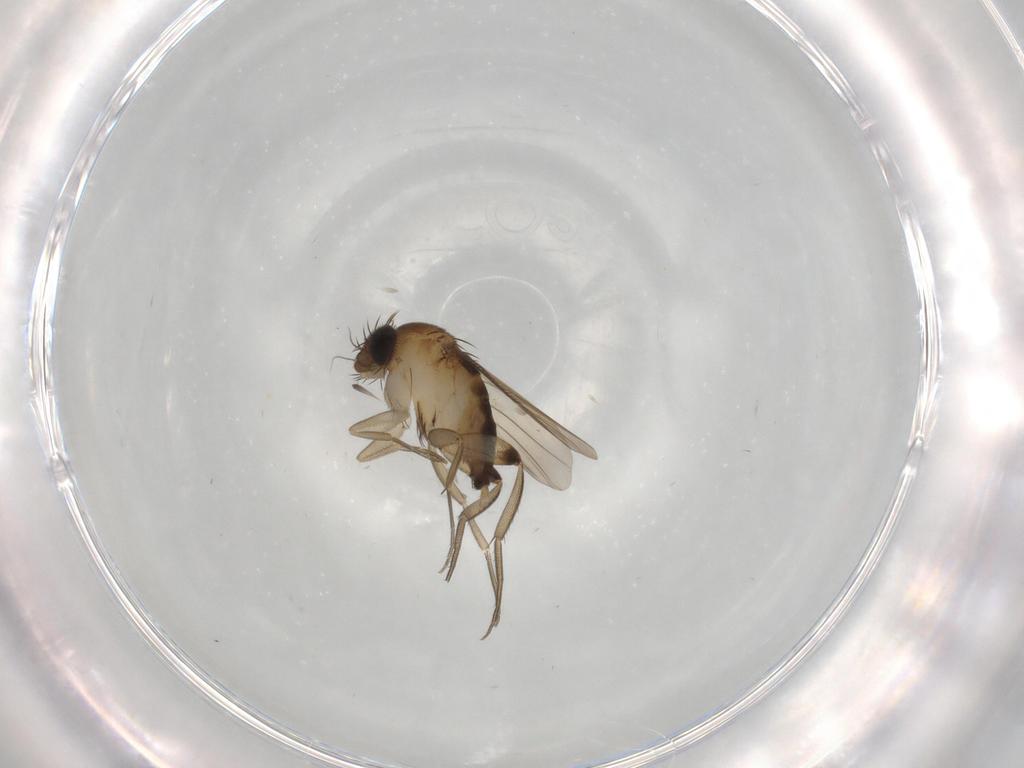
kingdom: Animalia
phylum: Arthropoda
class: Insecta
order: Diptera
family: Phoridae
